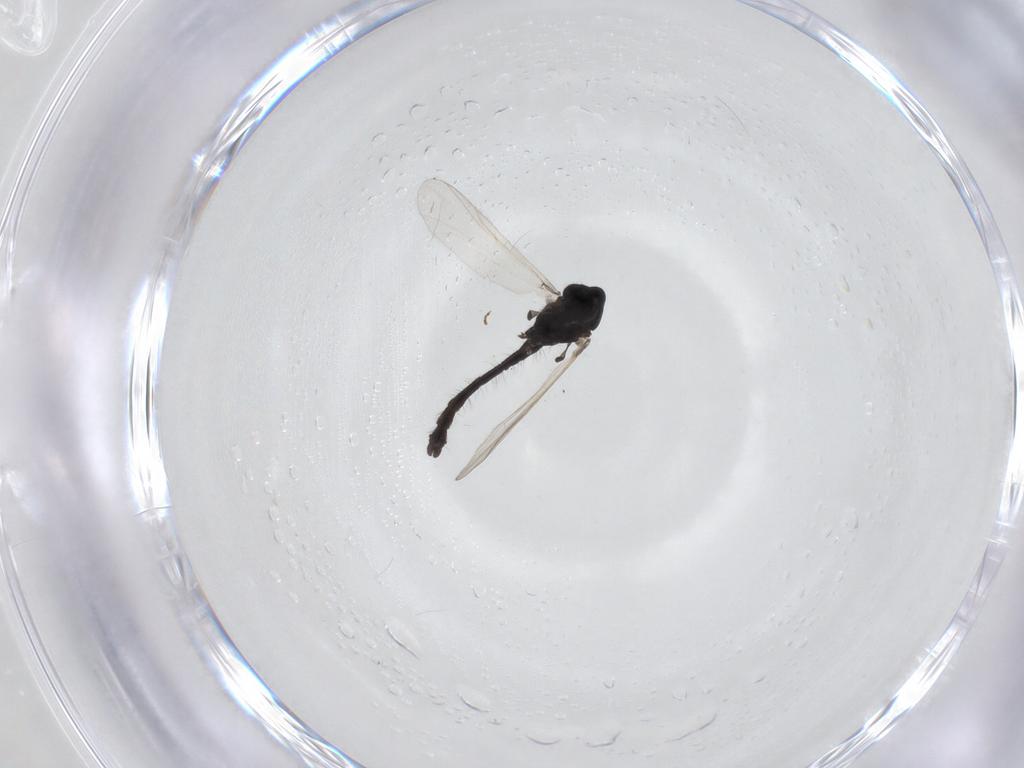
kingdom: Animalia
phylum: Arthropoda
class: Insecta
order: Diptera
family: Chironomidae
